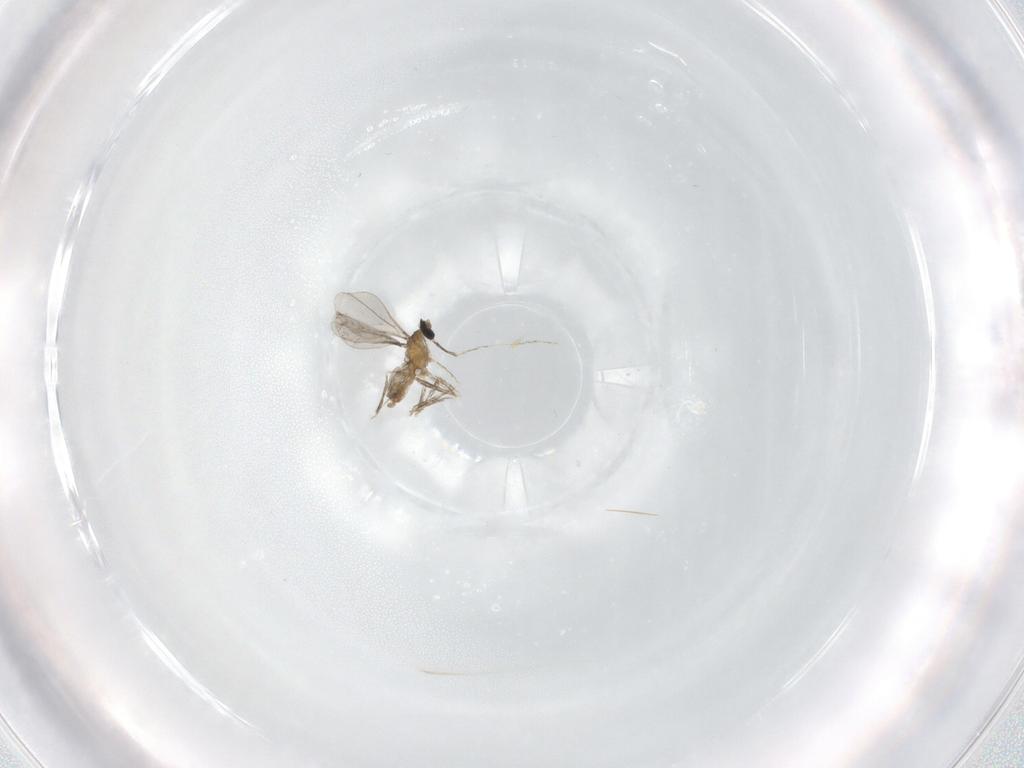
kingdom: Animalia
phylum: Arthropoda
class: Insecta
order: Diptera
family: Cecidomyiidae
